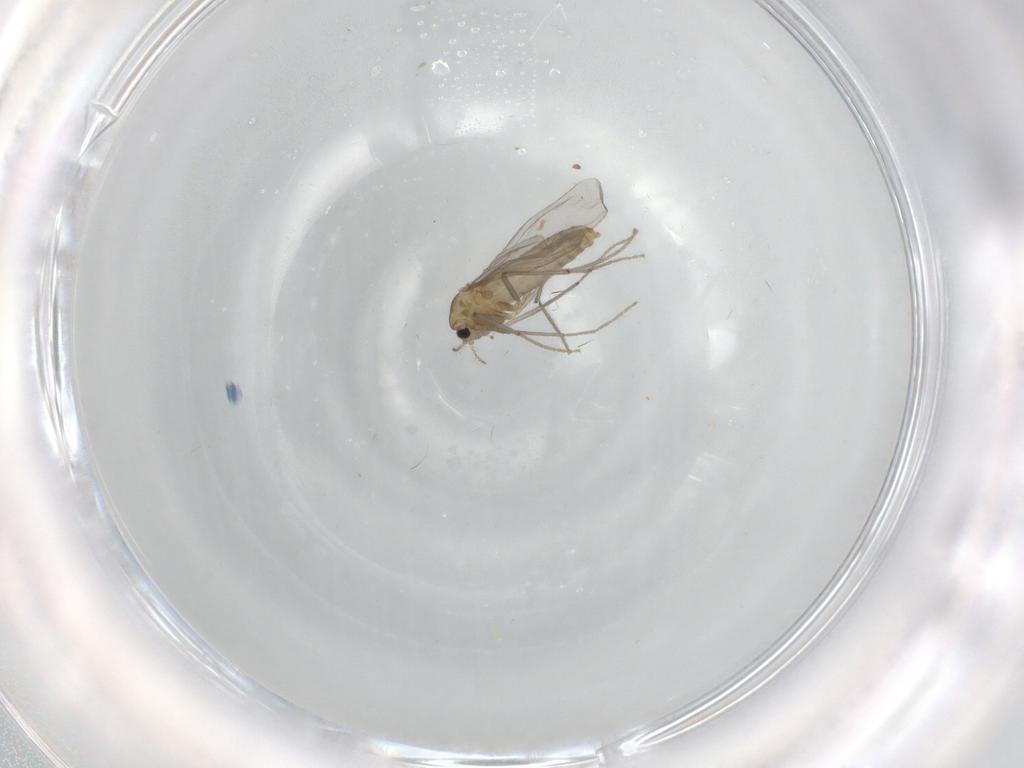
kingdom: Animalia
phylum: Arthropoda
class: Insecta
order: Diptera
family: Chironomidae
